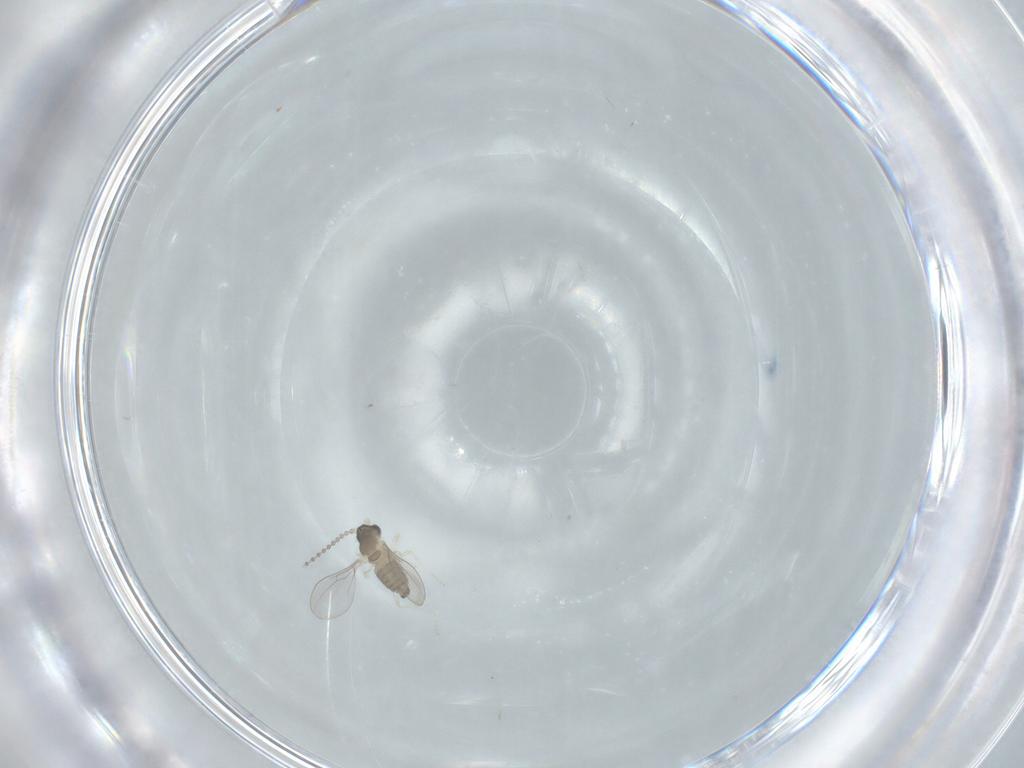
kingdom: Animalia
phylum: Arthropoda
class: Insecta
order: Diptera
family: Cecidomyiidae
